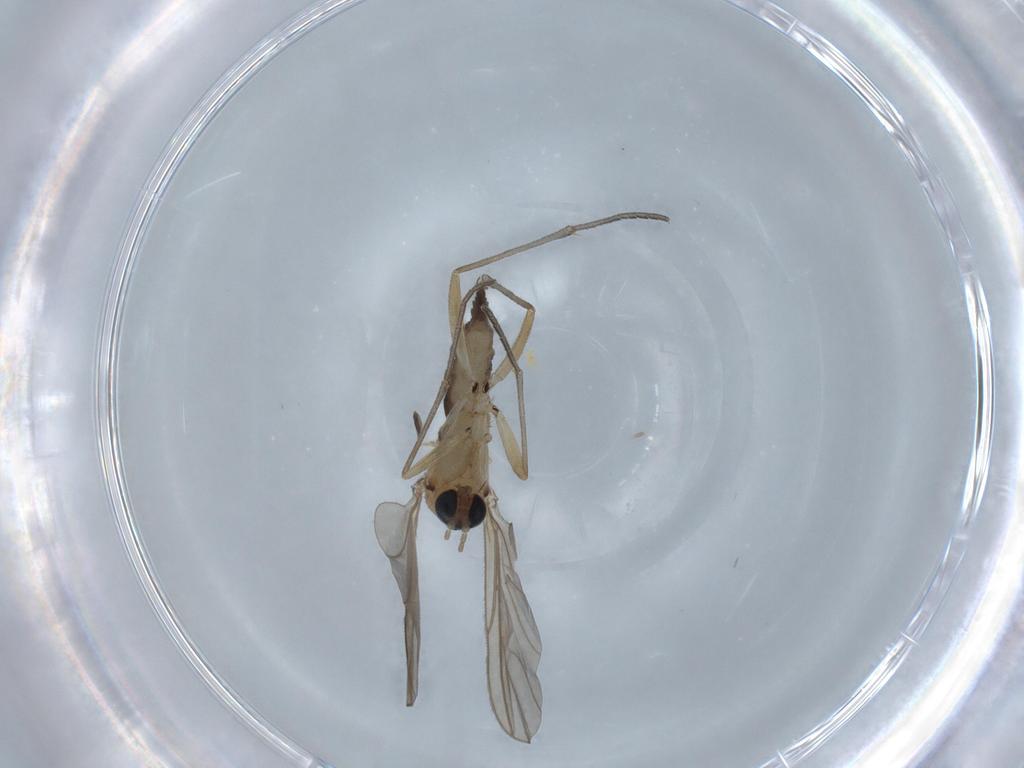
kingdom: Animalia
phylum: Arthropoda
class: Insecta
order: Diptera
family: Sciaridae
